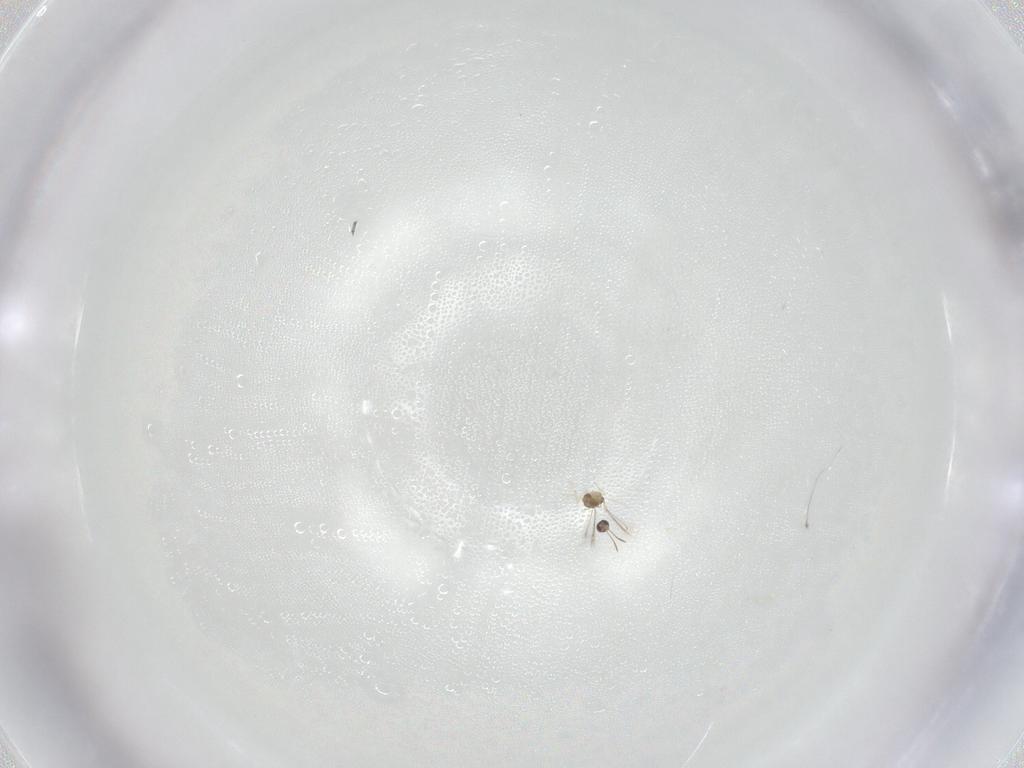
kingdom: Animalia
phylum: Arthropoda
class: Insecta
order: Hymenoptera
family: Mymaridae
